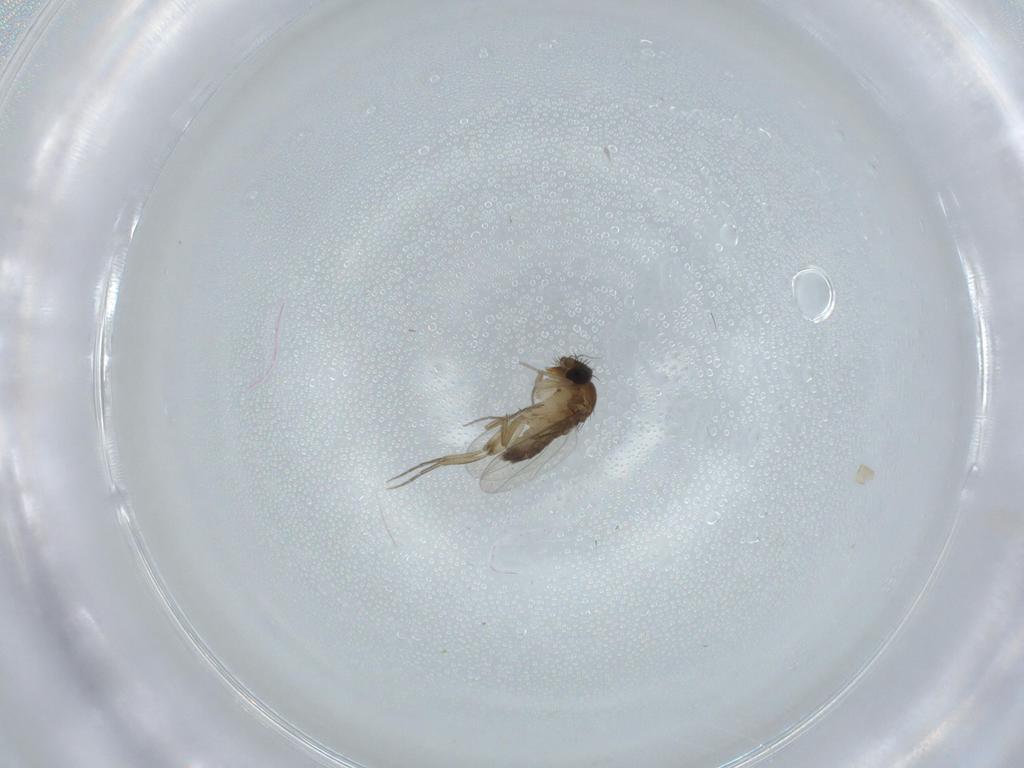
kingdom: Animalia
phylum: Arthropoda
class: Insecta
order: Diptera
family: Phoridae
